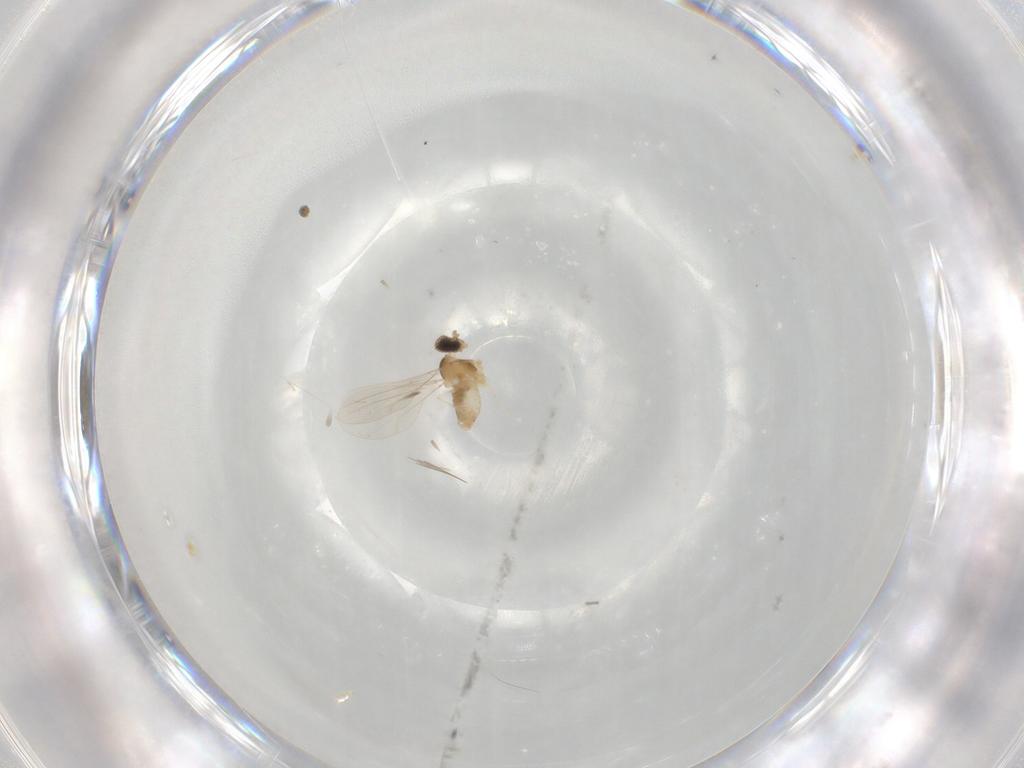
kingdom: Animalia
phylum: Arthropoda
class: Insecta
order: Diptera
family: Cecidomyiidae
